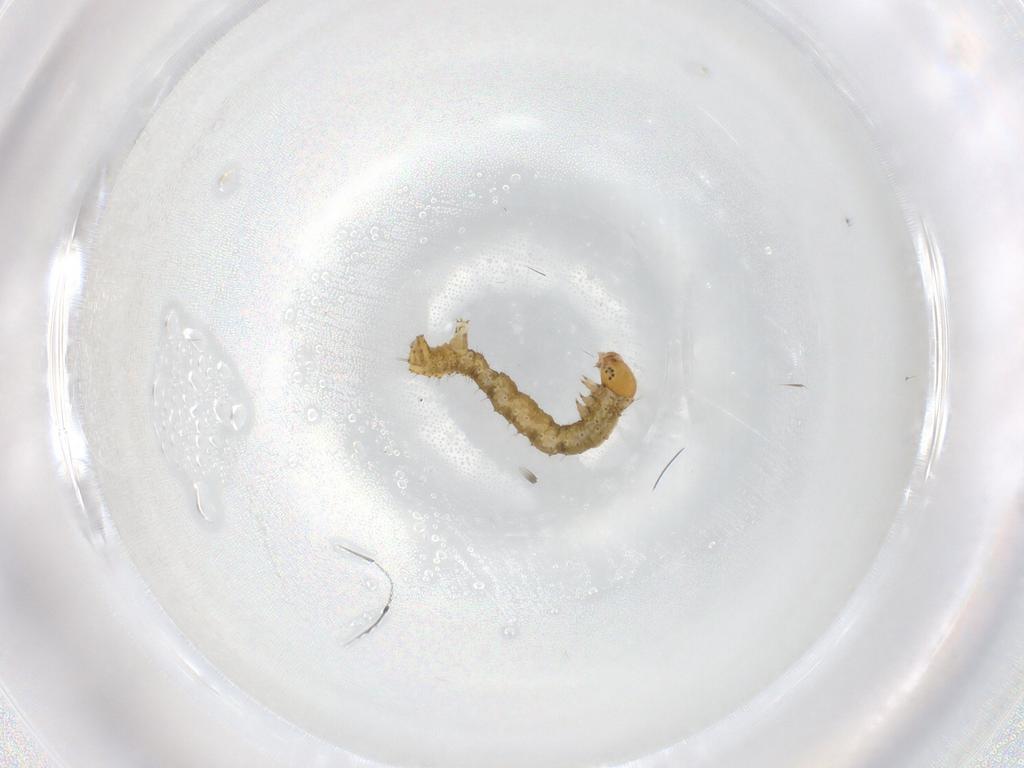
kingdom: Animalia
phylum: Arthropoda
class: Insecta
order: Lepidoptera
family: Geometridae
